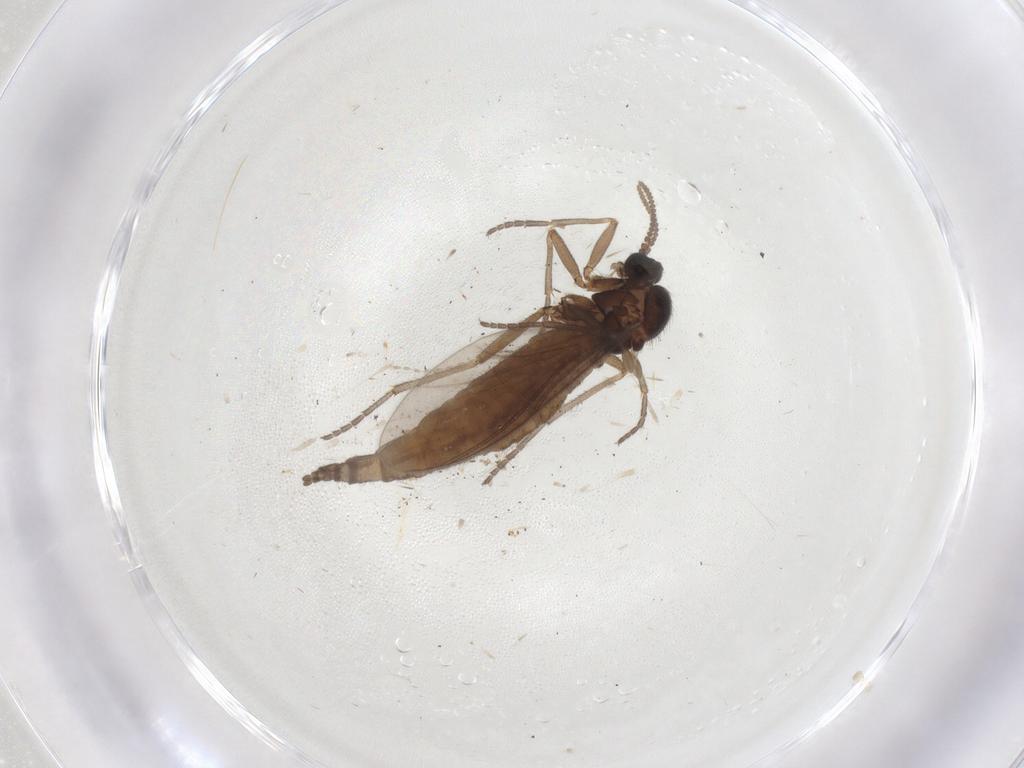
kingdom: Animalia
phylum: Arthropoda
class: Insecta
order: Diptera
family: Sciaridae
